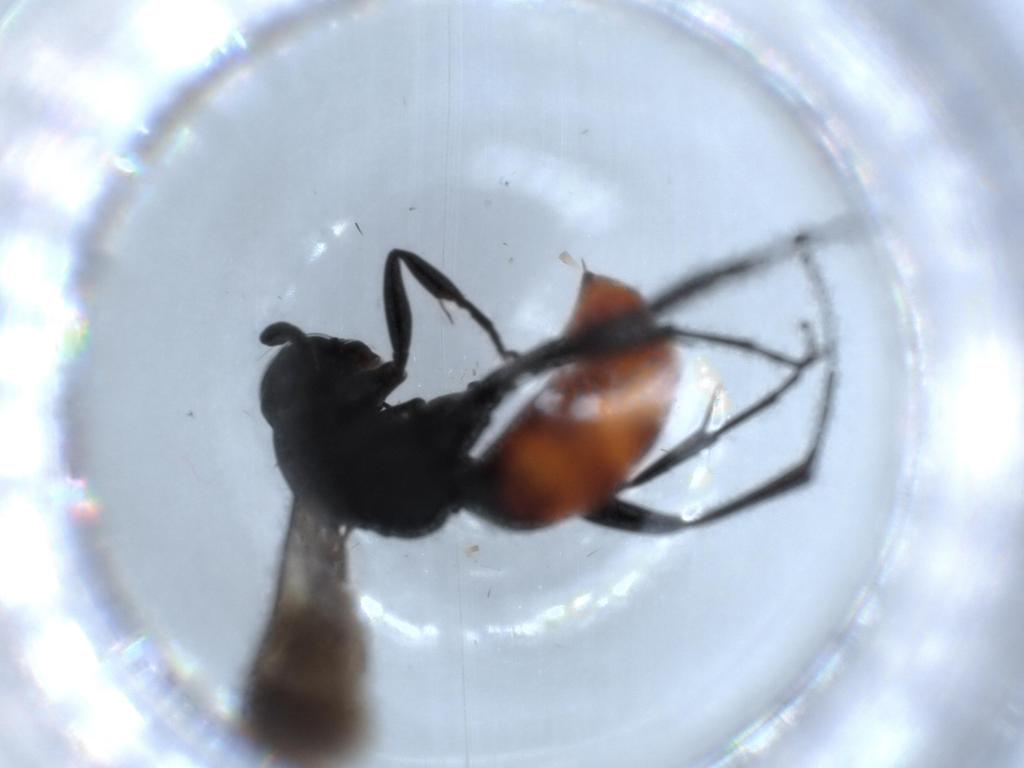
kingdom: Animalia
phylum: Arthropoda
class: Insecta
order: Hymenoptera
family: Pompilidae
